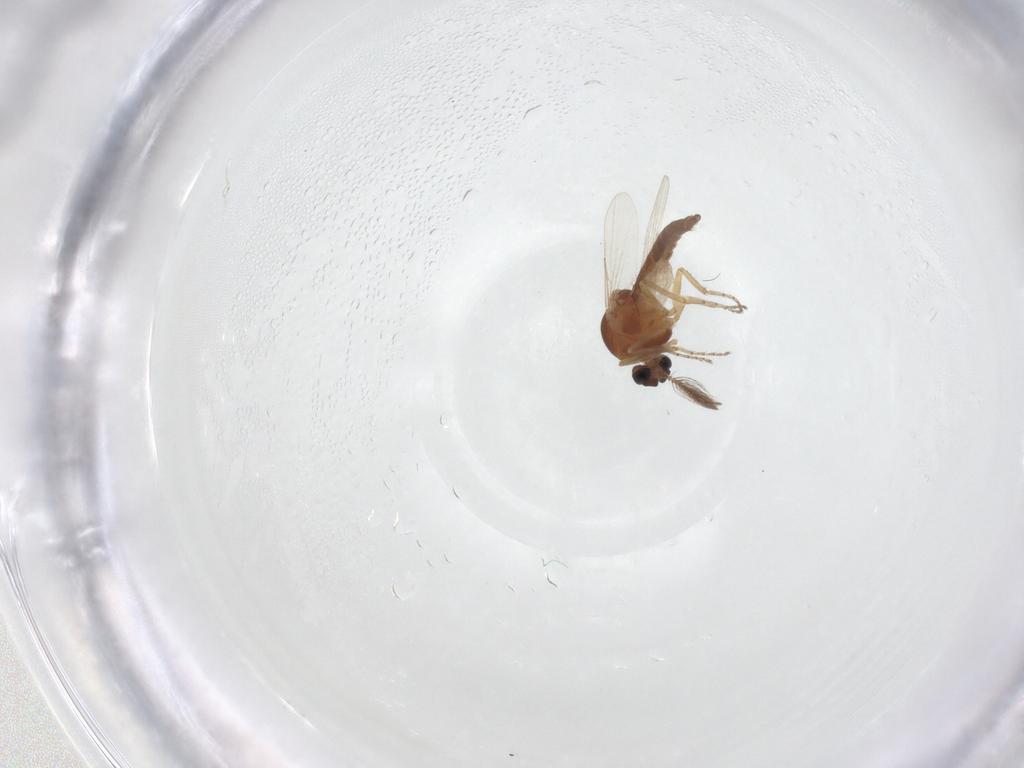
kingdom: Animalia
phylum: Arthropoda
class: Insecta
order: Diptera
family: Ceratopogonidae
